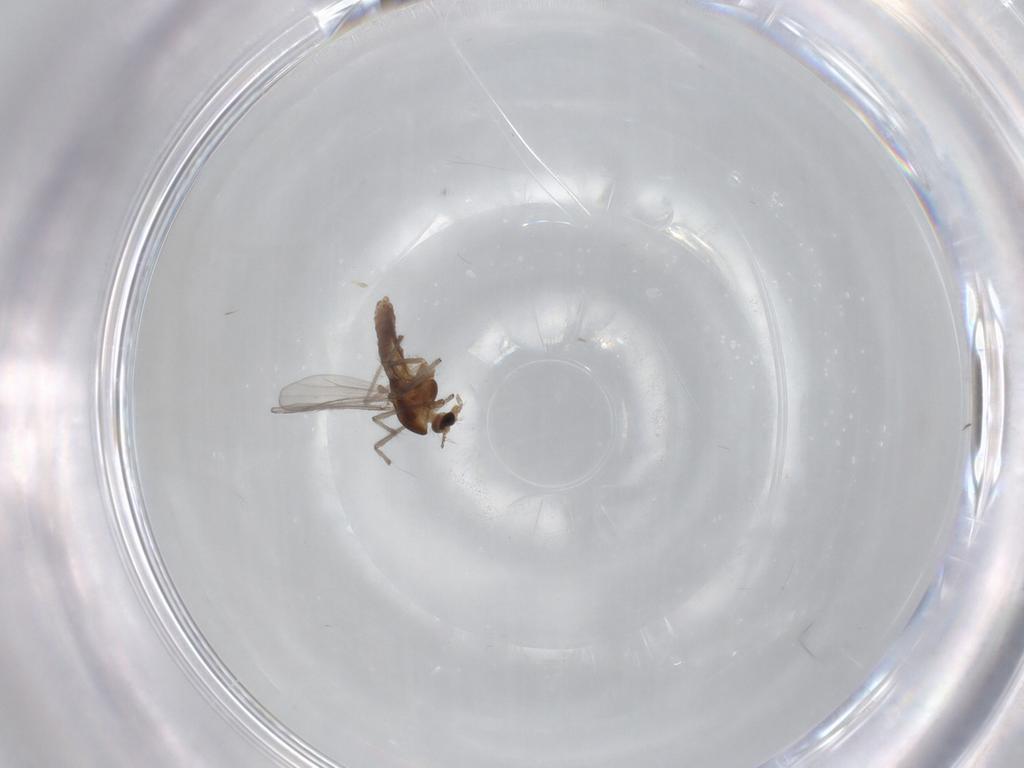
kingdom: Animalia
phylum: Arthropoda
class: Insecta
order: Diptera
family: Chironomidae
